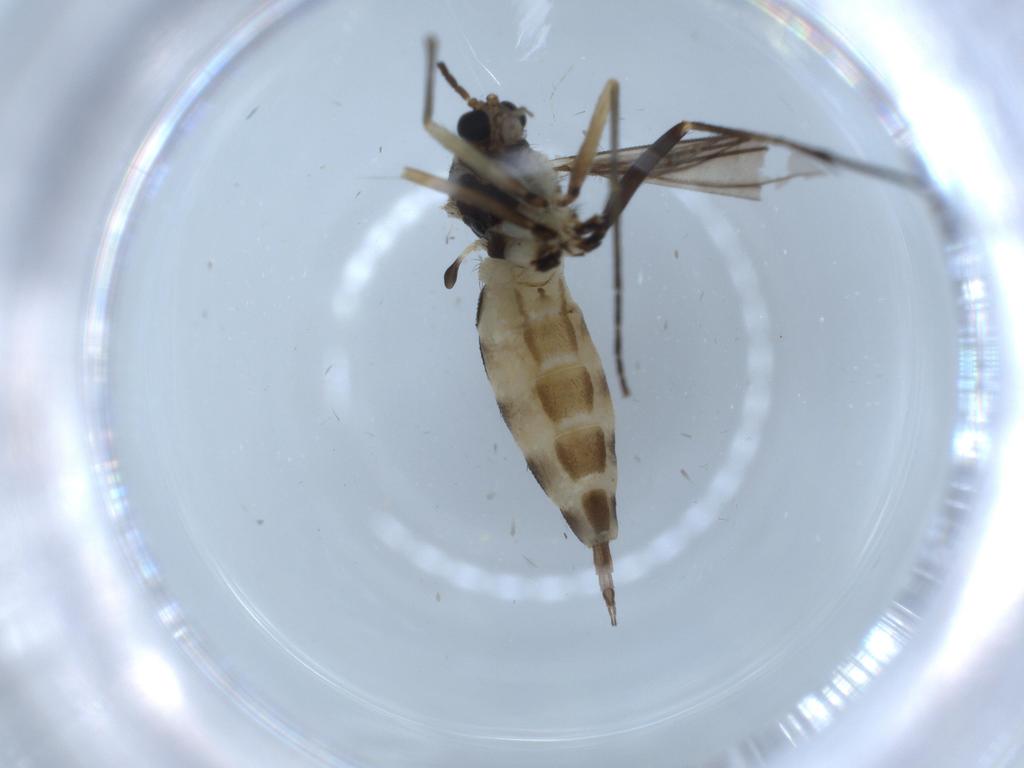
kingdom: Animalia
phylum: Arthropoda
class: Insecta
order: Diptera
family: Sciaridae
